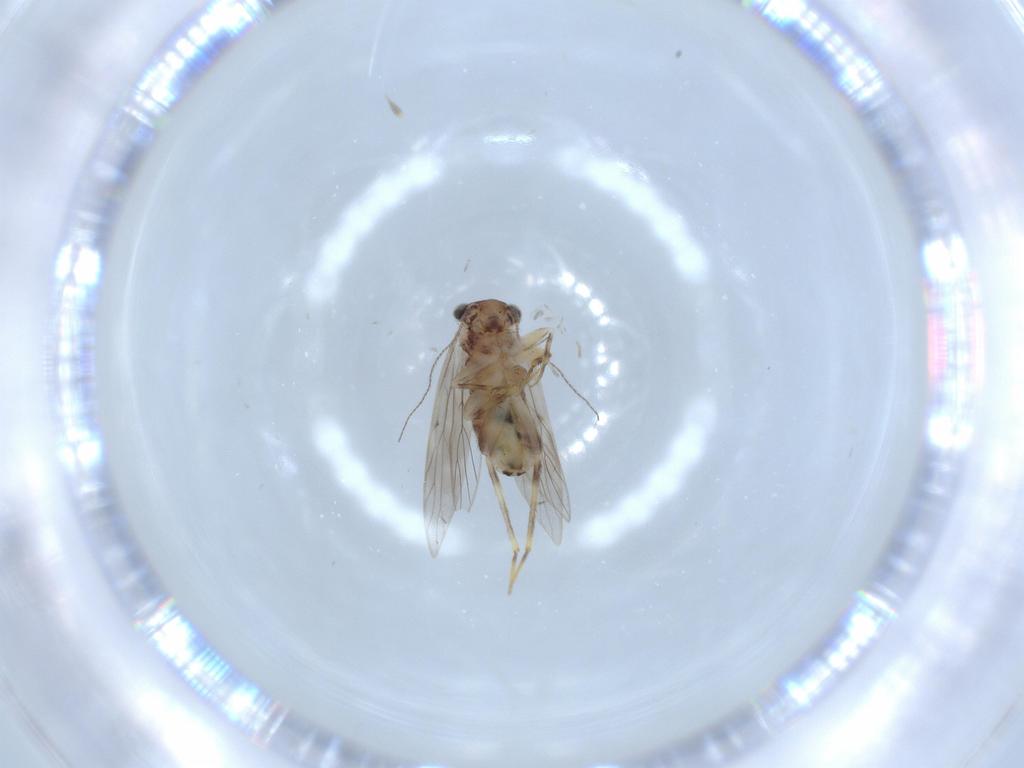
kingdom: Animalia
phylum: Arthropoda
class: Insecta
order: Psocodea
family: Lepidopsocidae
